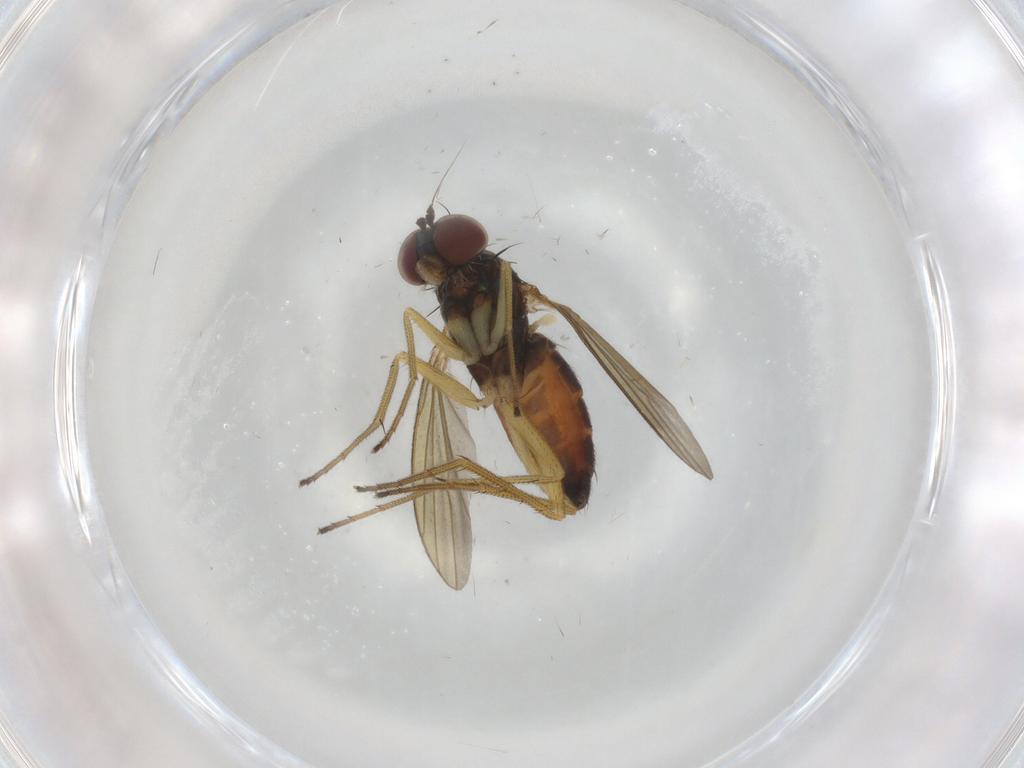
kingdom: Animalia
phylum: Arthropoda
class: Insecta
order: Diptera
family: Dolichopodidae
